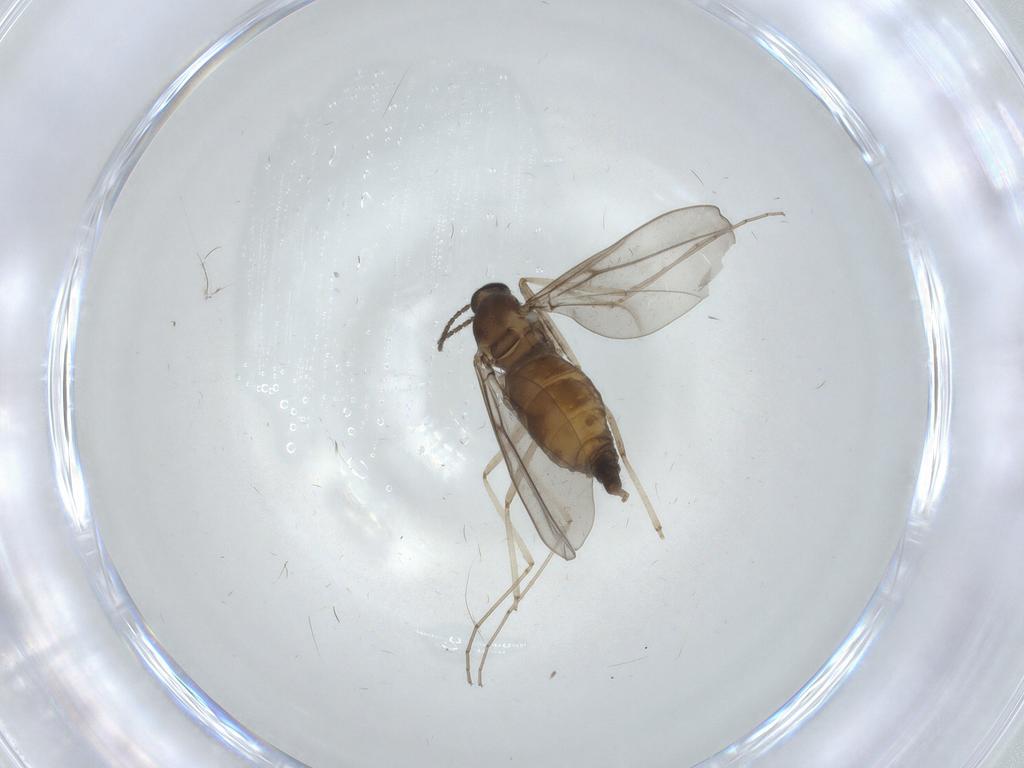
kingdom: Animalia
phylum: Arthropoda
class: Insecta
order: Diptera
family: Cecidomyiidae
